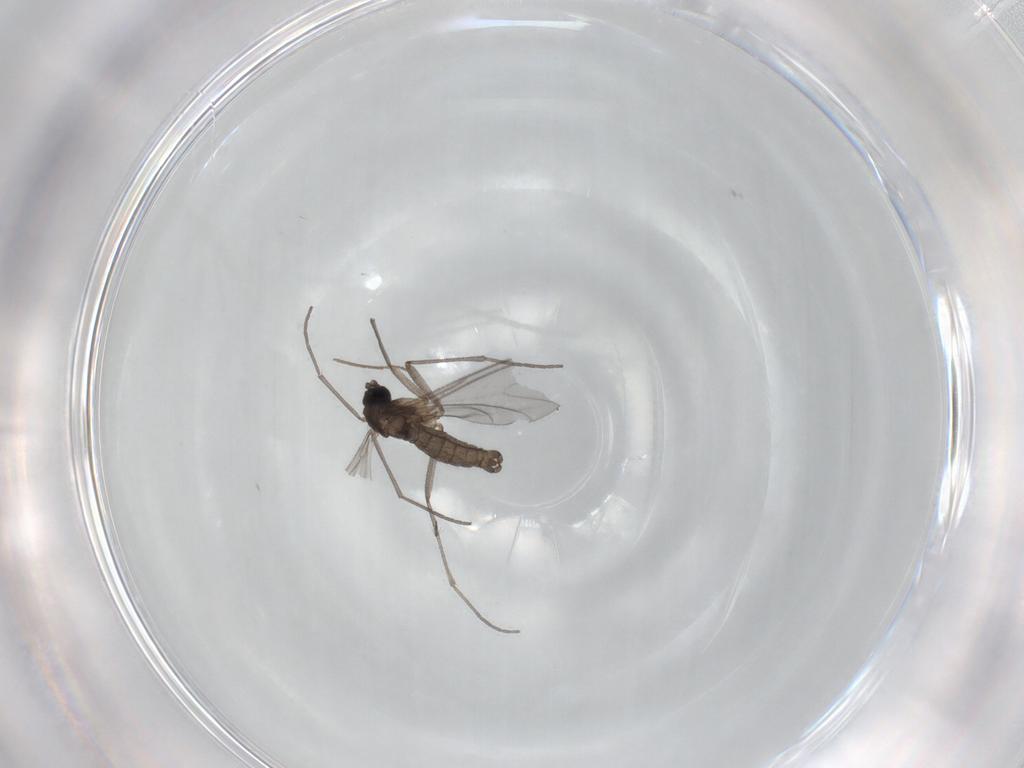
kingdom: Animalia
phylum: Arthropoda
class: Insecta
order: Diptera
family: Sciaridae
